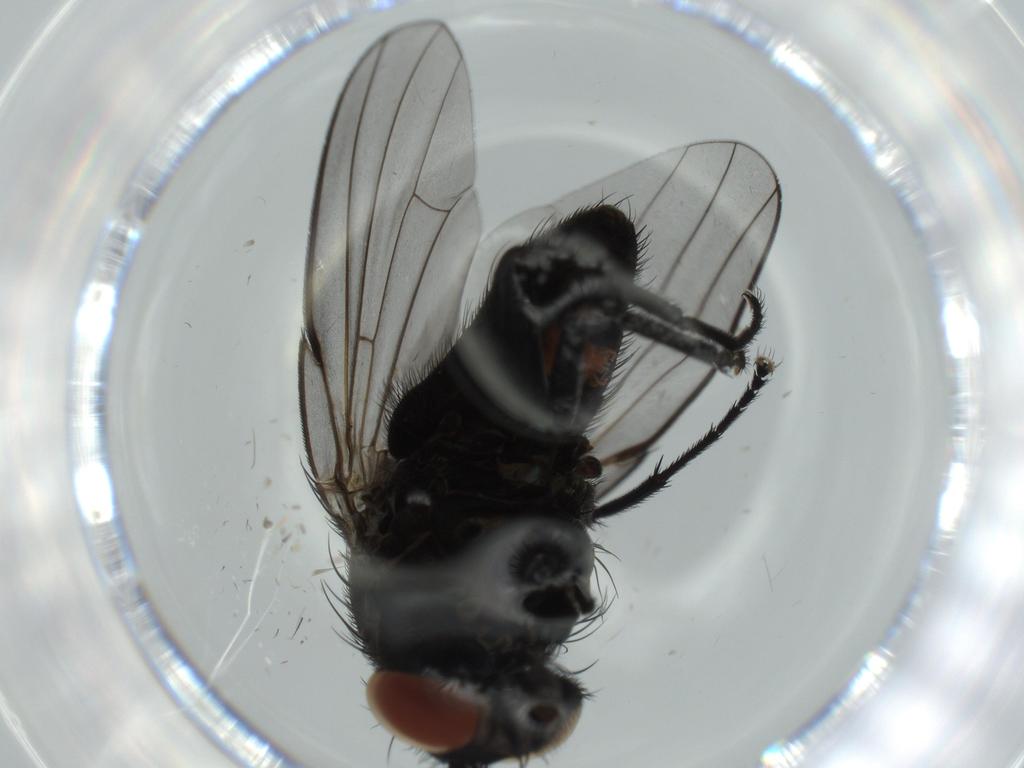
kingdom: Animalia
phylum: Arthropoda
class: Insecta
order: Diptera
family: Milichiidae
